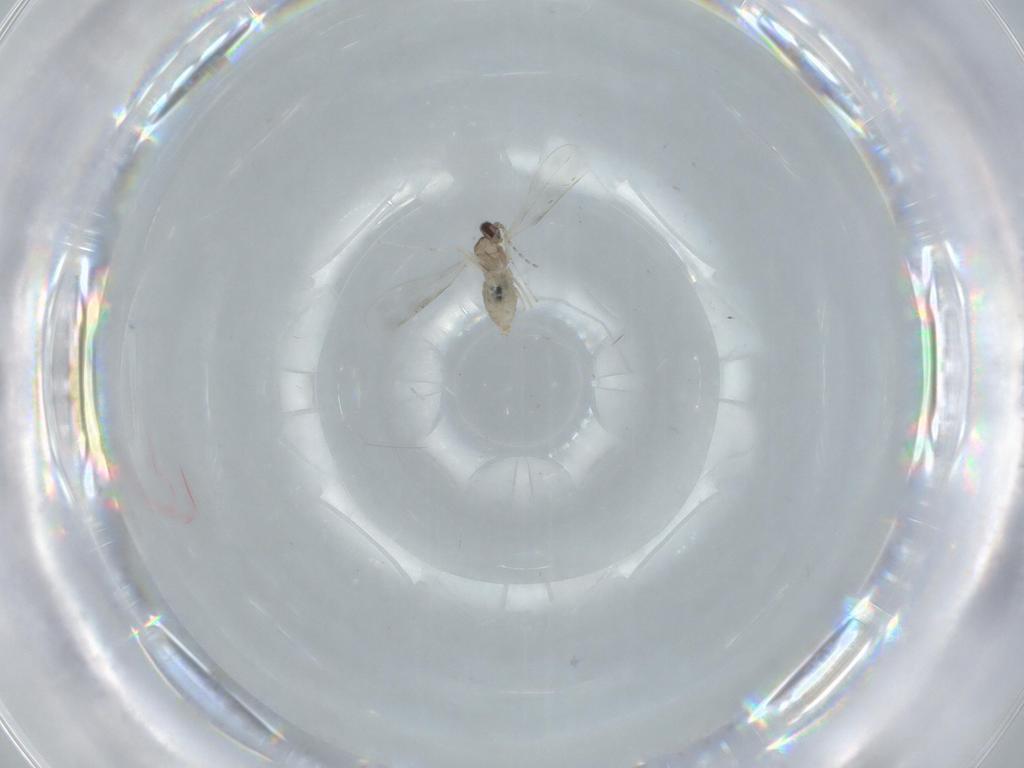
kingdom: Animalia
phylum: Arthropoda
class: Insecta
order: Diptera
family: Cecidomyiidae
